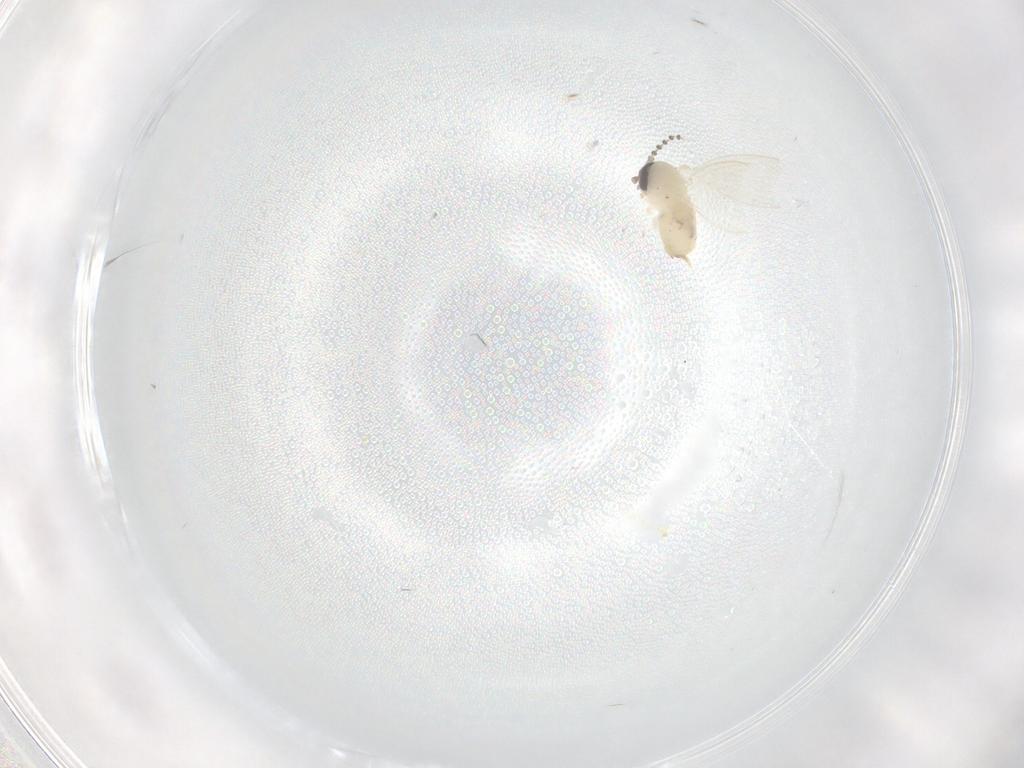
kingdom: Animalia
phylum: Arthropoda
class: Insecta
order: Diptera
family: Psychodidae
